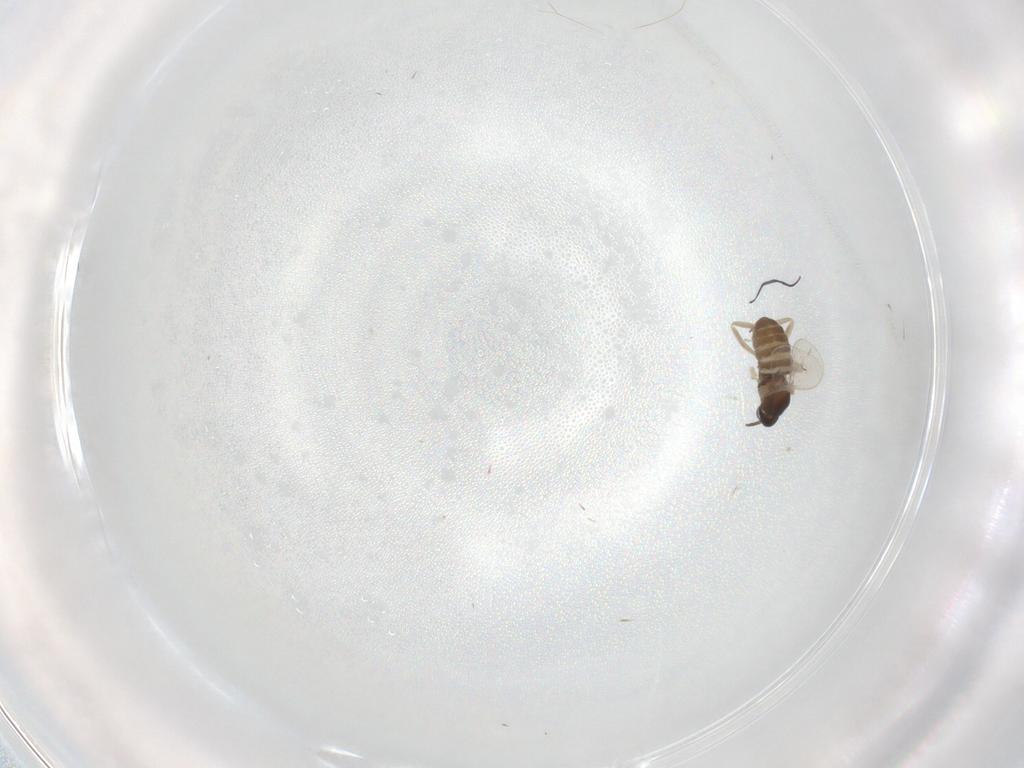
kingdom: Animalia
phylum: Arthropoda
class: Insecta
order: Diptera
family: Cecidomyiidae
